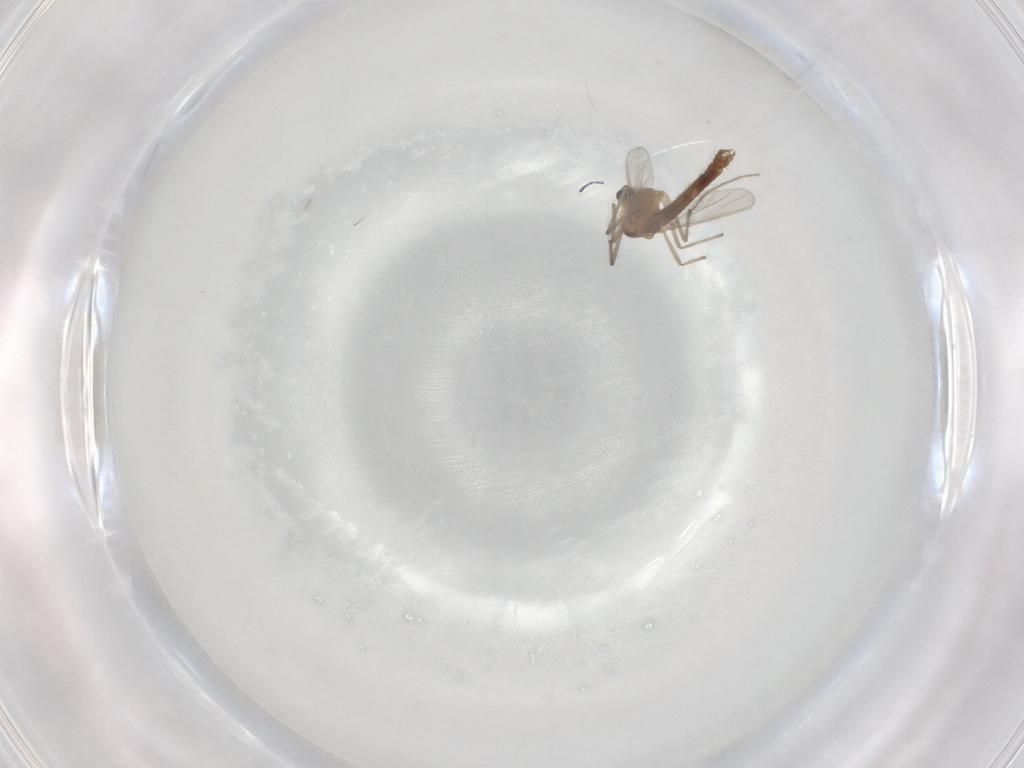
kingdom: Animalia
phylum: Arthropoda
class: Insecta
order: Diptera
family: Chironomidae
